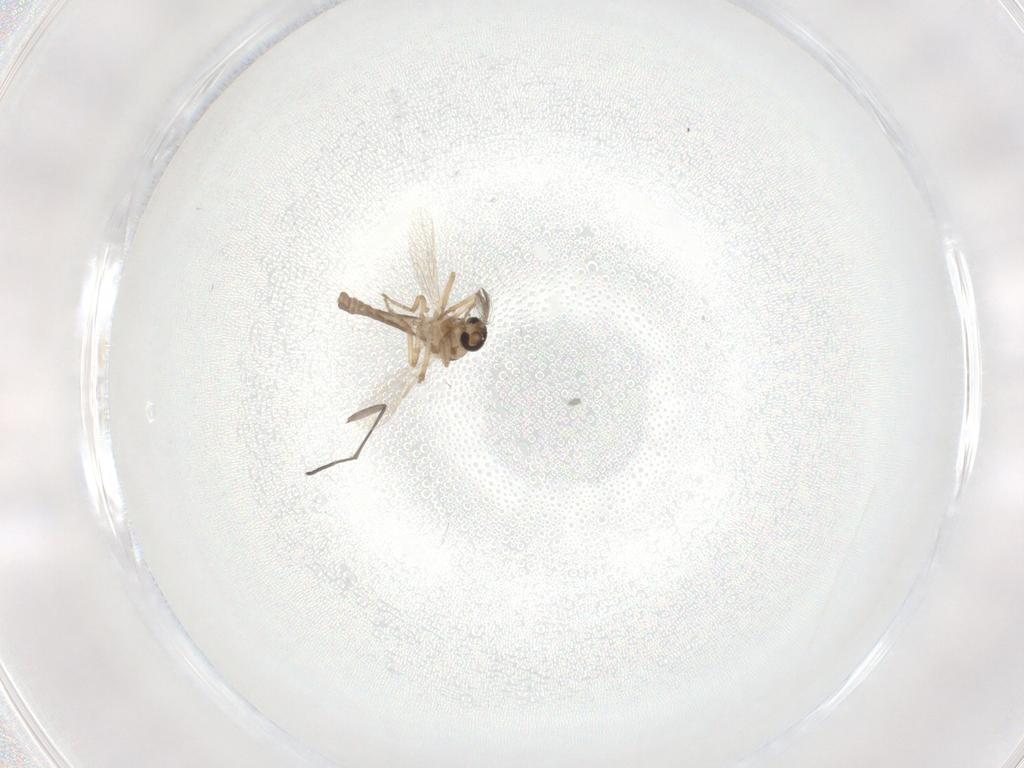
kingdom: Animalia
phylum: Arthropoda
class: Insecta
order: Diptera
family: Ceratopogonidae
